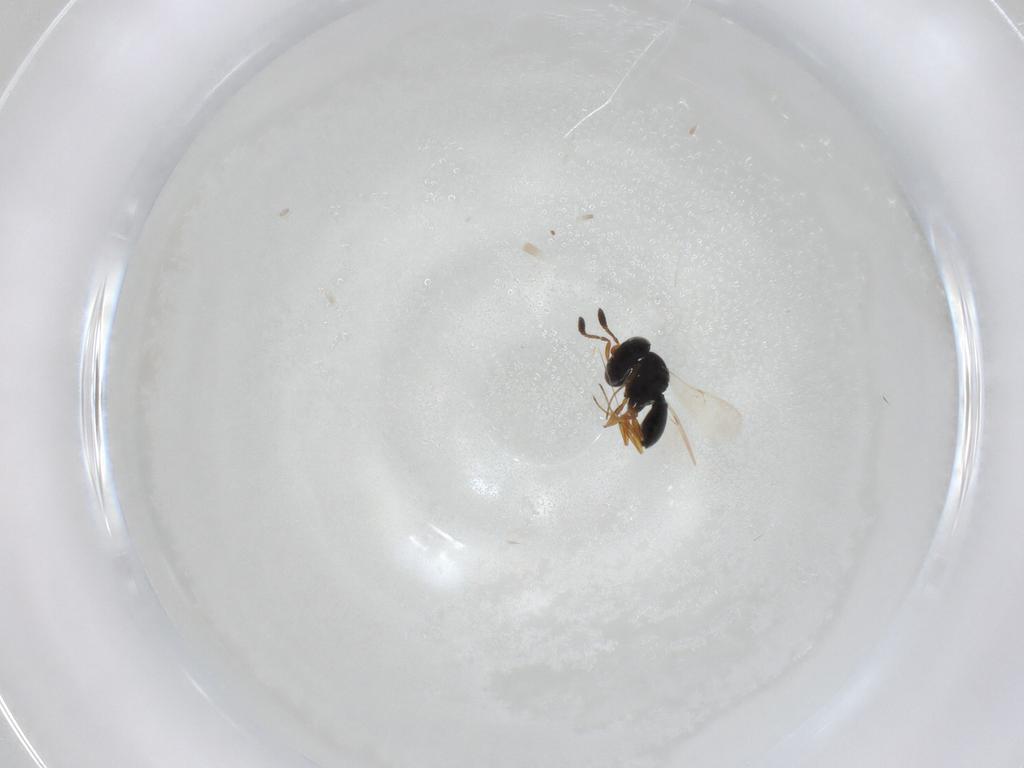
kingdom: Animalia
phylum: Arthropoda
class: Insecta
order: Hymenoptera
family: Scelionidae
